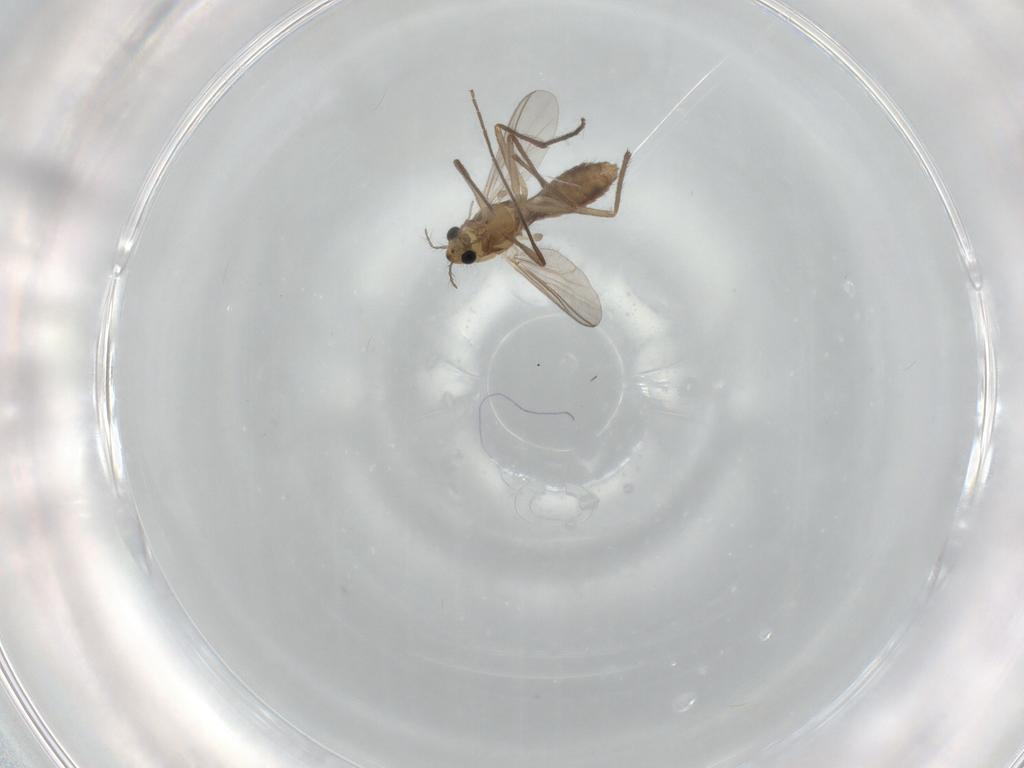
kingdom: Animalia
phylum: Arthropoda
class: Insecta
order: Diptera
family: Chironomidae
